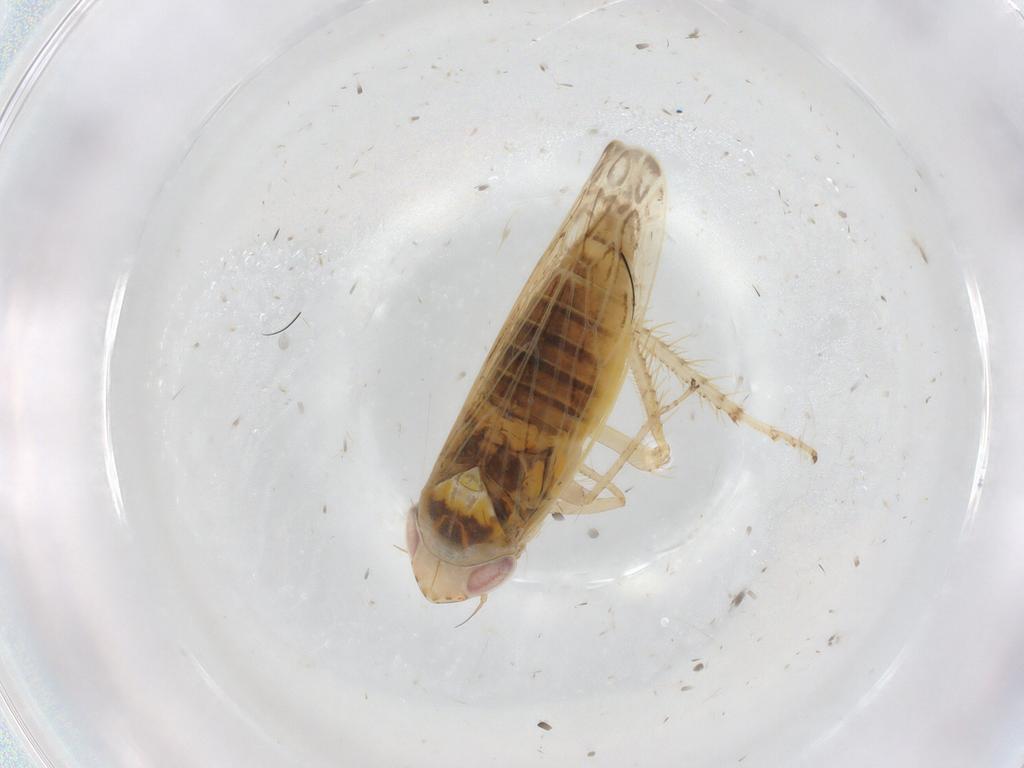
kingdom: Animalia
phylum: Arthropoda
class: Insecta
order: Hemiptera
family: Cicadellidae
